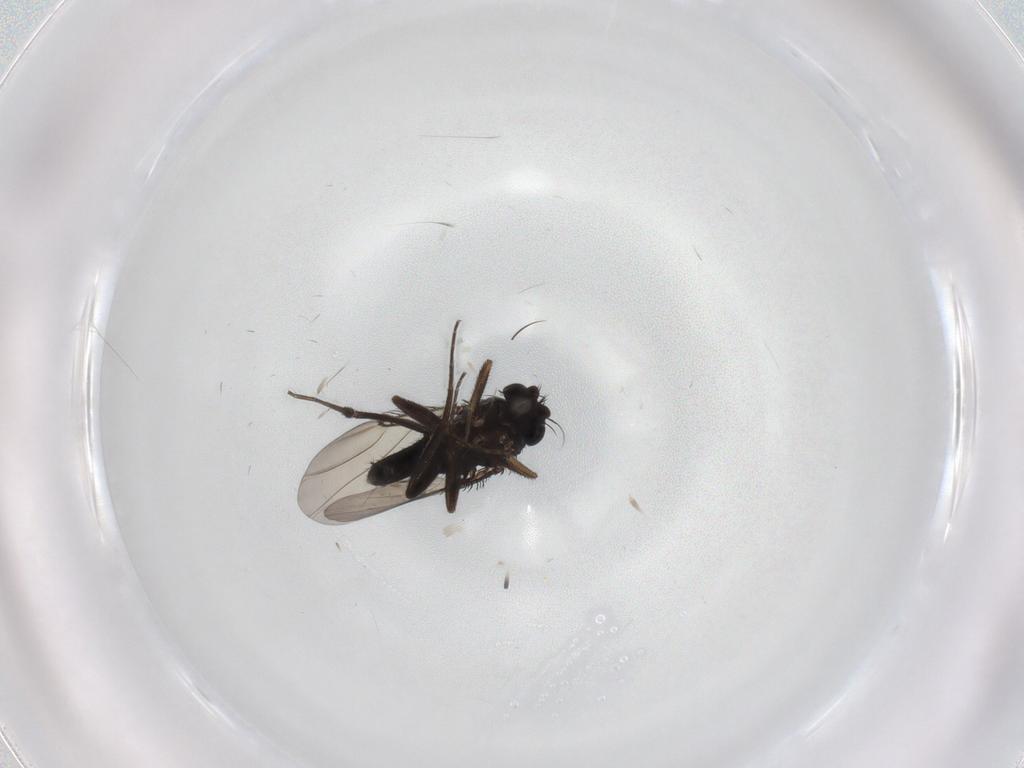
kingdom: Animalia
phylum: Arthropoda
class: Insecta
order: Diptera
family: Phoridae
